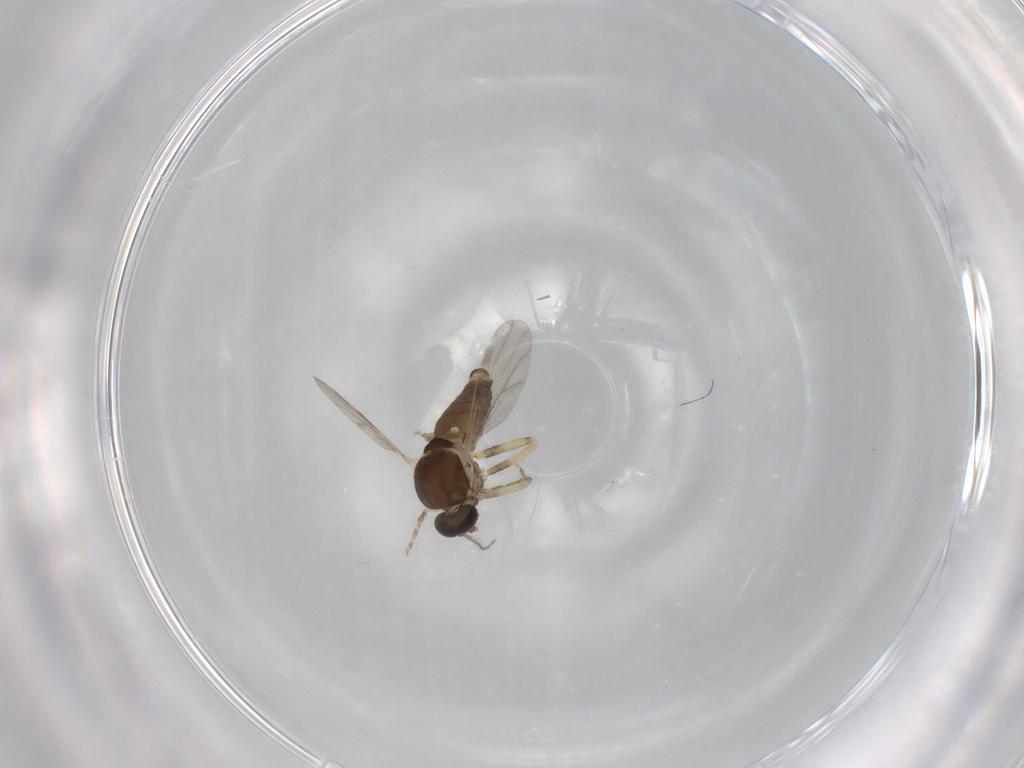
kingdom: Animalia
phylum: Arthropoda
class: Insecta
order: Diptera
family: Ceratopogonidae
